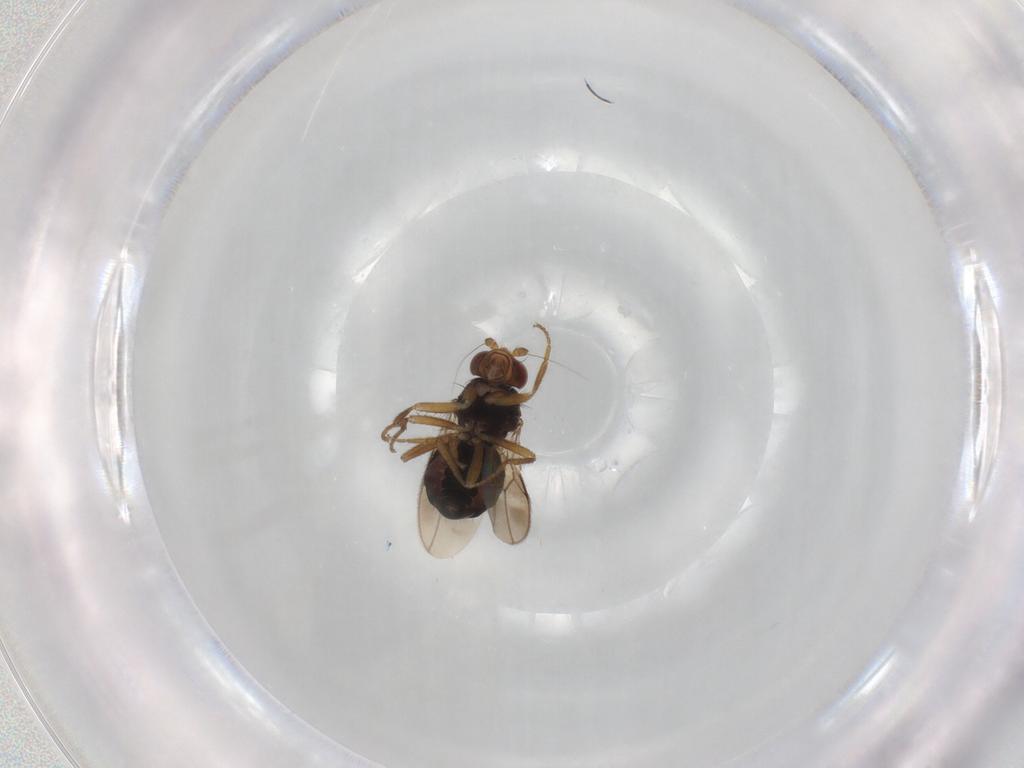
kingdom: Animalia
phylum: Arthropoda
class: Insecta
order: Diptera
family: Sphaeroceridae
